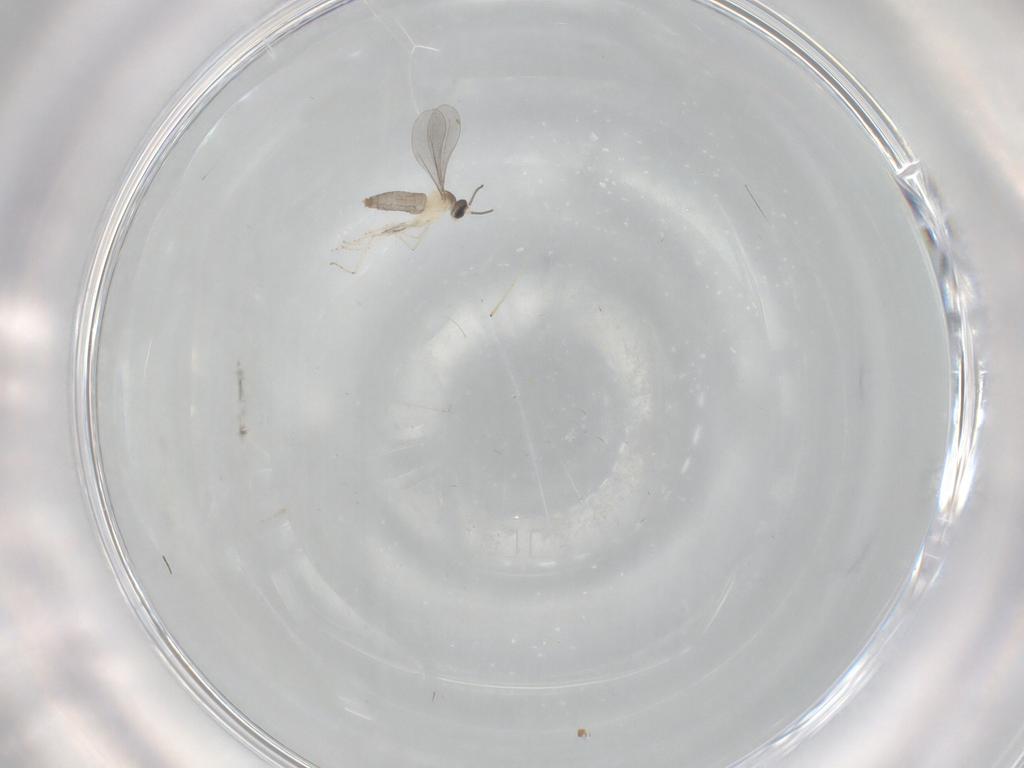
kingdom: Animalia
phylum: Arthropoda
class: Insecta
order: Diptera
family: Cecidomyiidae
